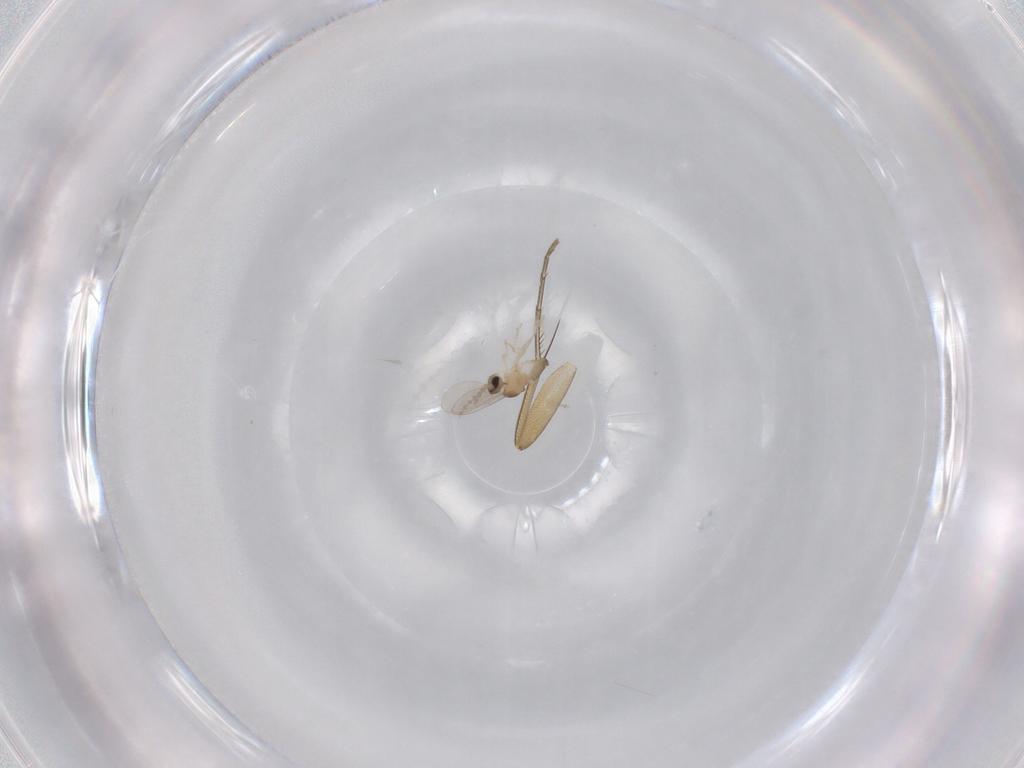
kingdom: Animalia
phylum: Arthropoda
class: Insecta
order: Diptera
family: Cecidomyiidae
